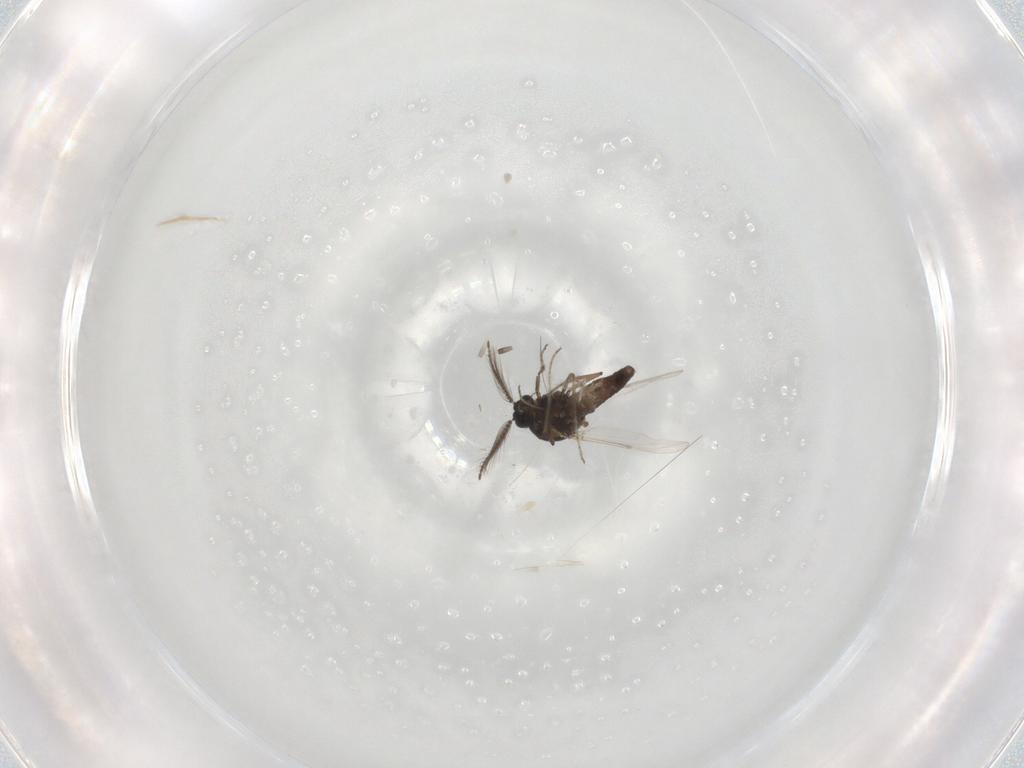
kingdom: Animalia
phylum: Arthropoda
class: Insecta
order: Diptera
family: Ceratopogonidae
